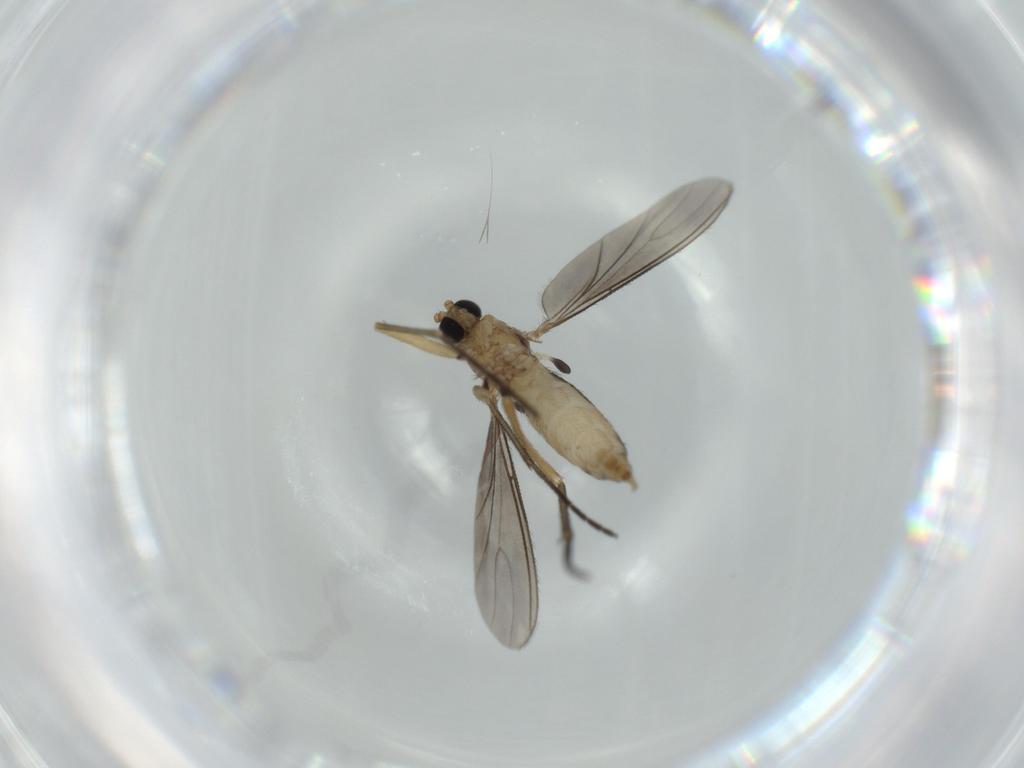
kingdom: Animalia
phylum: Arthropoda
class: Insecta
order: Diptera
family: Sciaridae
